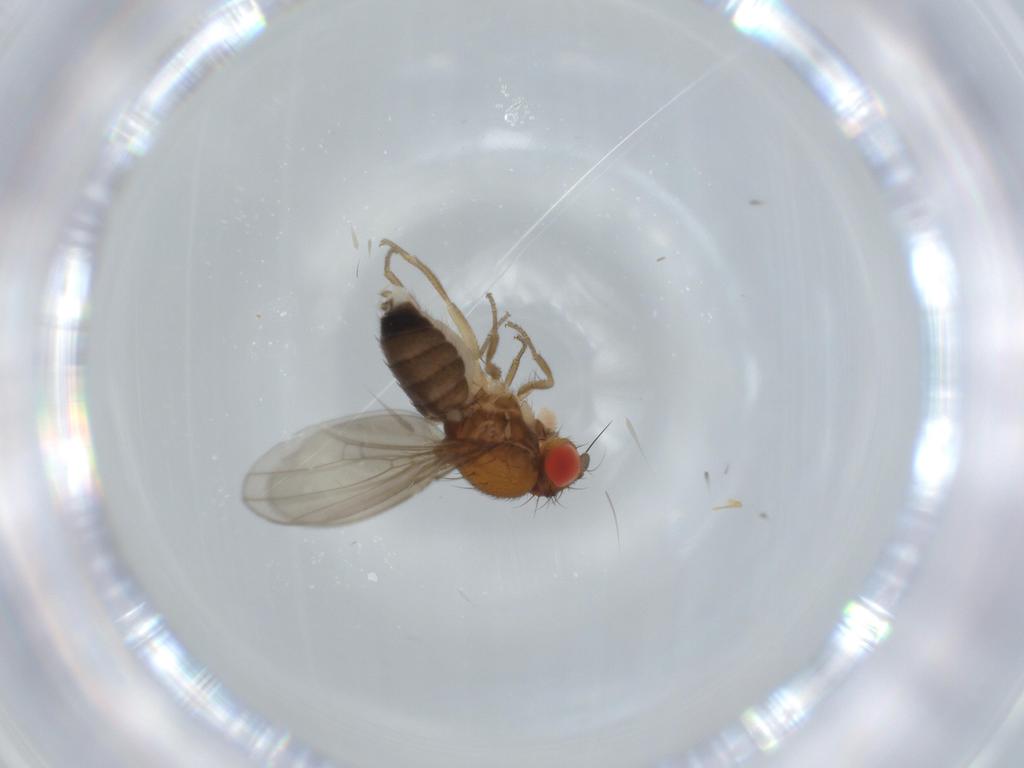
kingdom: Animalia
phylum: Arthropoda
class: Insecta
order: Diptera
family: Drosophilidae
